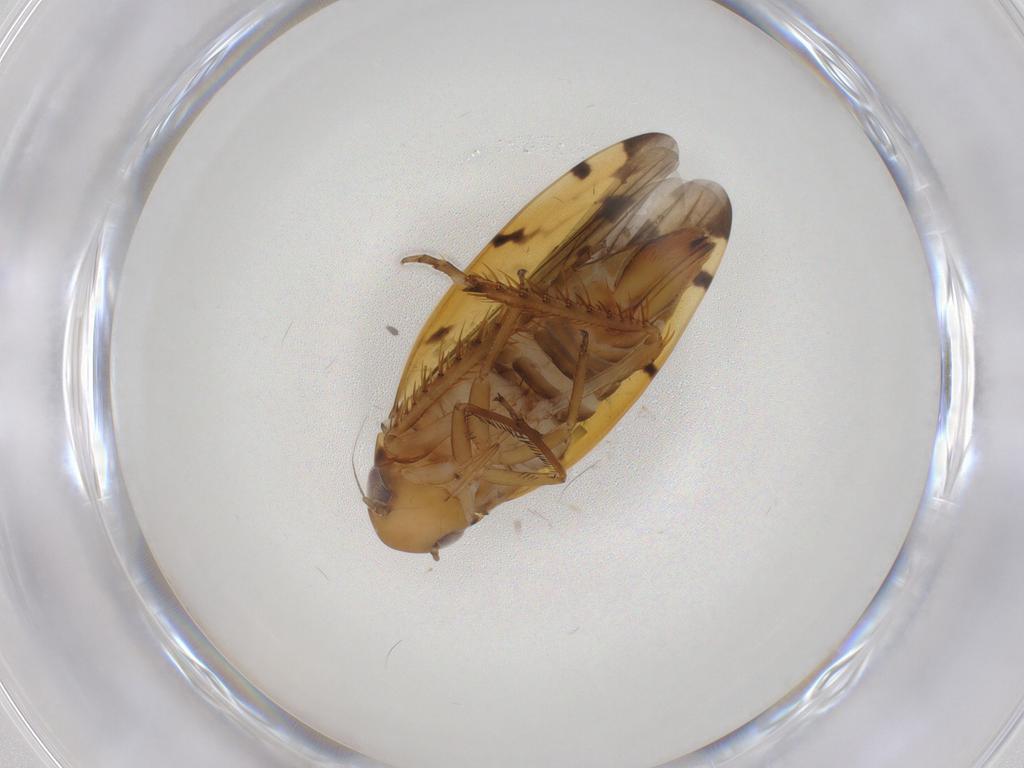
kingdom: Animalia
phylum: Arthropoda
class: Insecta
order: Hemiptera
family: Cicadellidae
